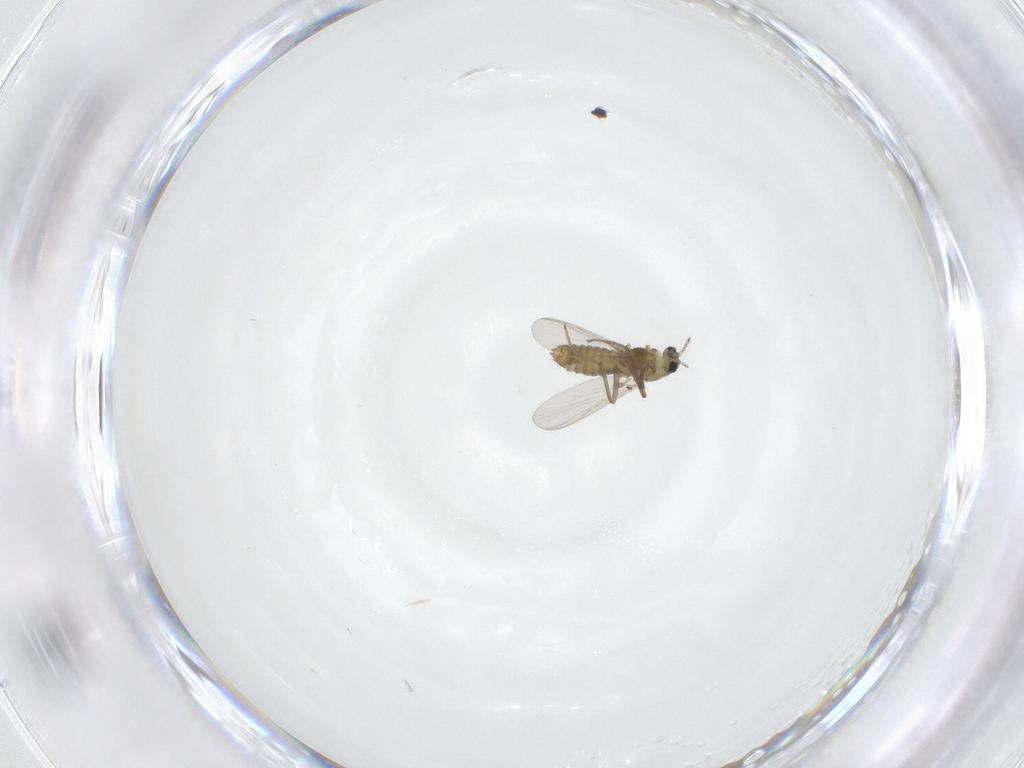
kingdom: Animalia
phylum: Arthropoda
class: Insecta
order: Diptera
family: Chironomidae
